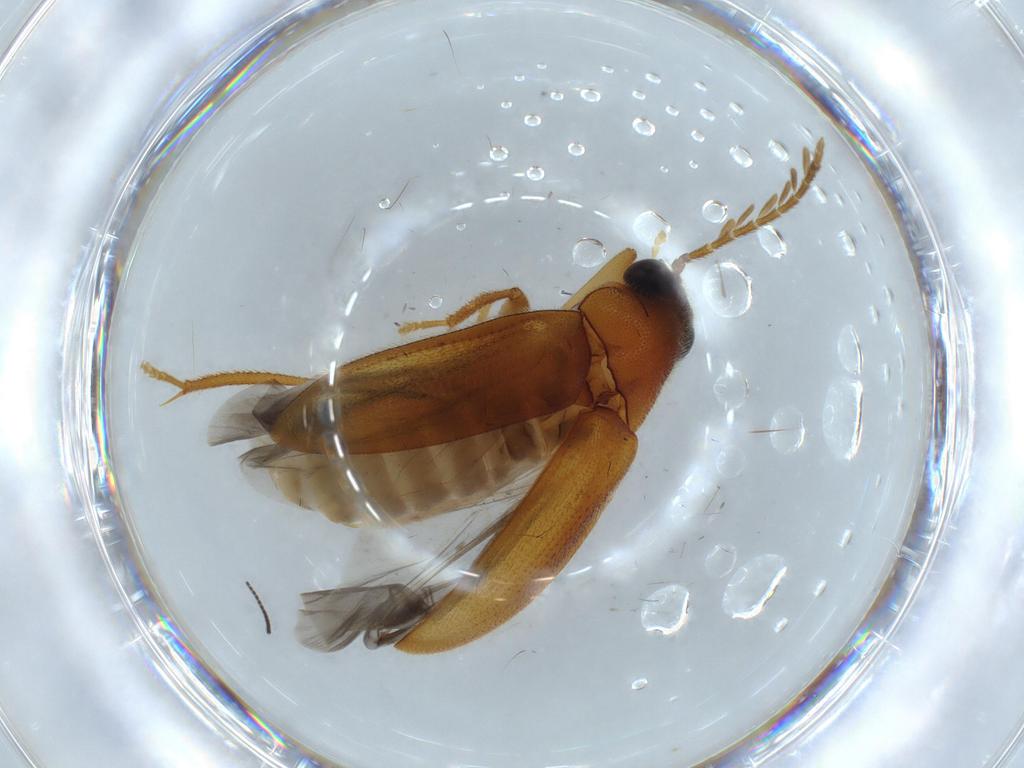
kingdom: Animalia
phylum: Arthropoda
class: Insecta
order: Coleoptera
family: Ptilodactylidae
